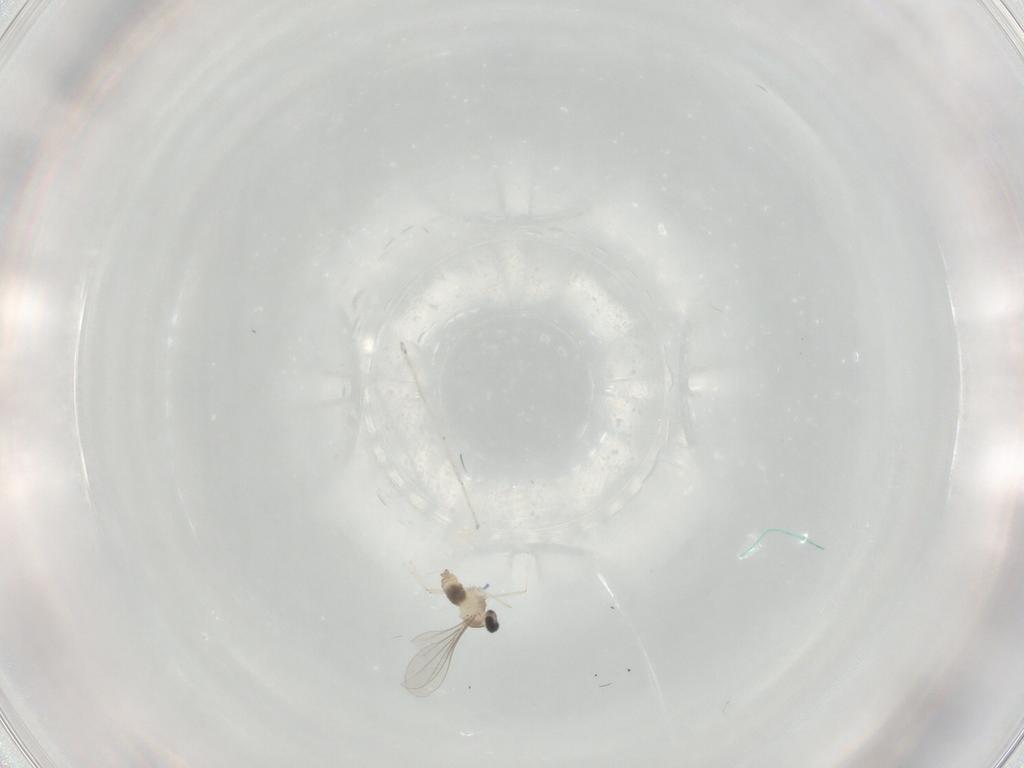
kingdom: Animalia
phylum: Arthropoda
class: Insecta
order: Diptera
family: Cecidomyiidae
